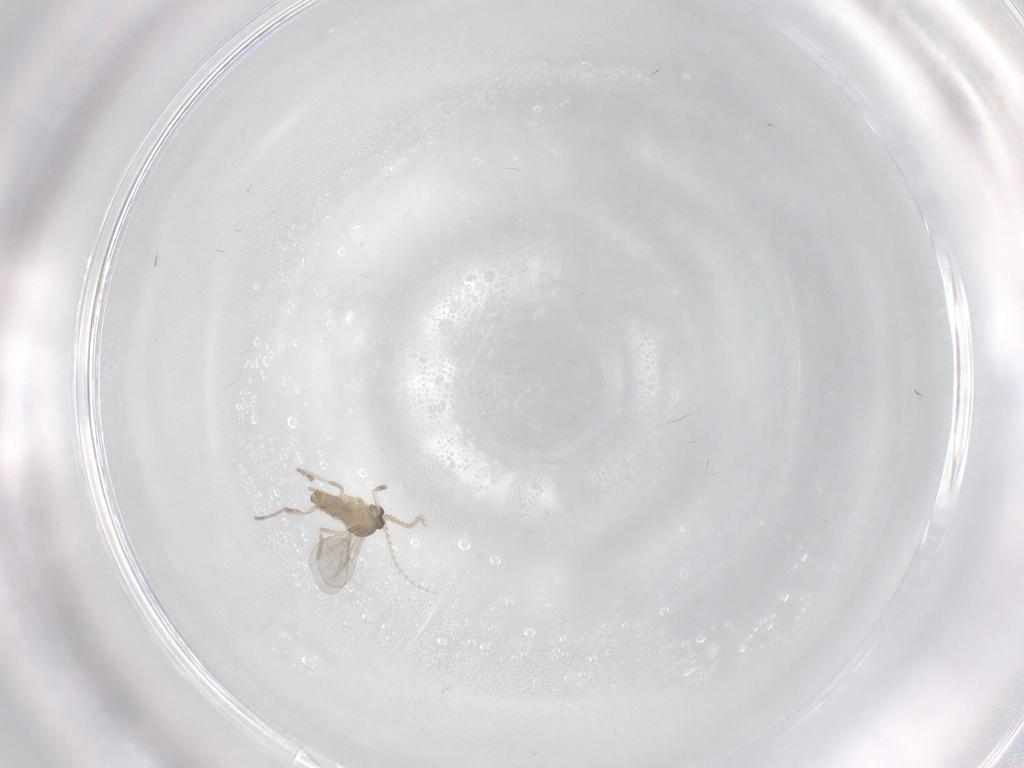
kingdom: Animalia
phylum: Arthropoda
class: Insecta
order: Diptera
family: Cecidomyiidae
